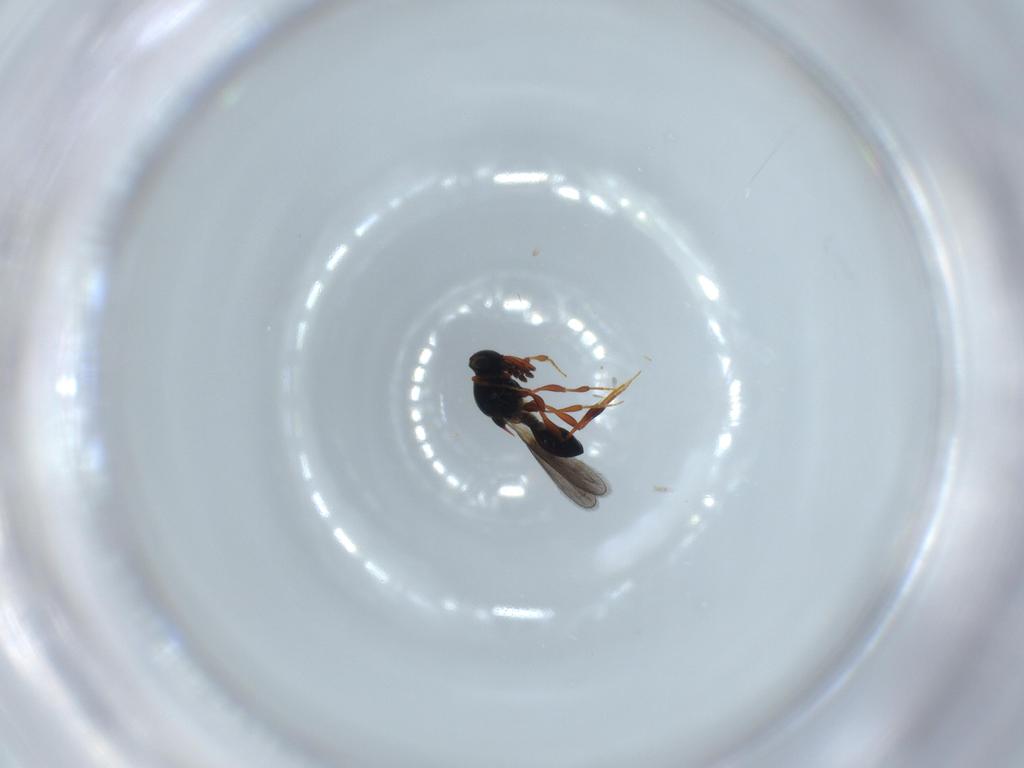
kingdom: Animalia
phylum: Arthropoda
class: Insecta
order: Hymenoptera
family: Platygastridae
